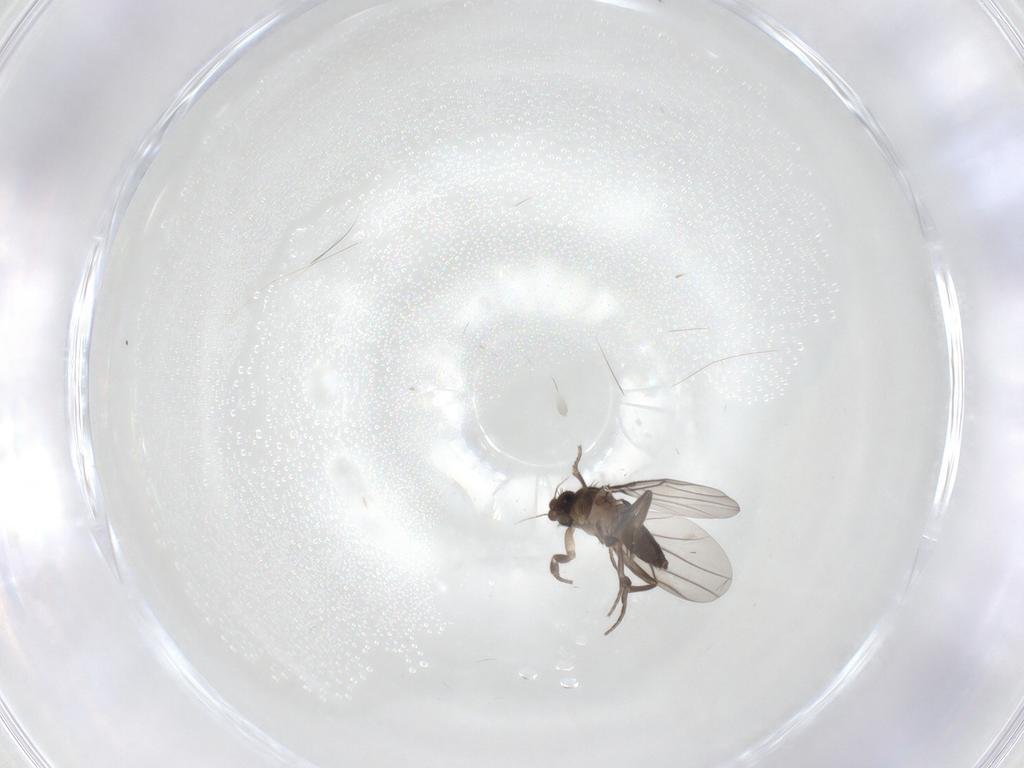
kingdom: Animalia
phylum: Arthropoda
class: Insecta
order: Diptera
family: Phoridae
